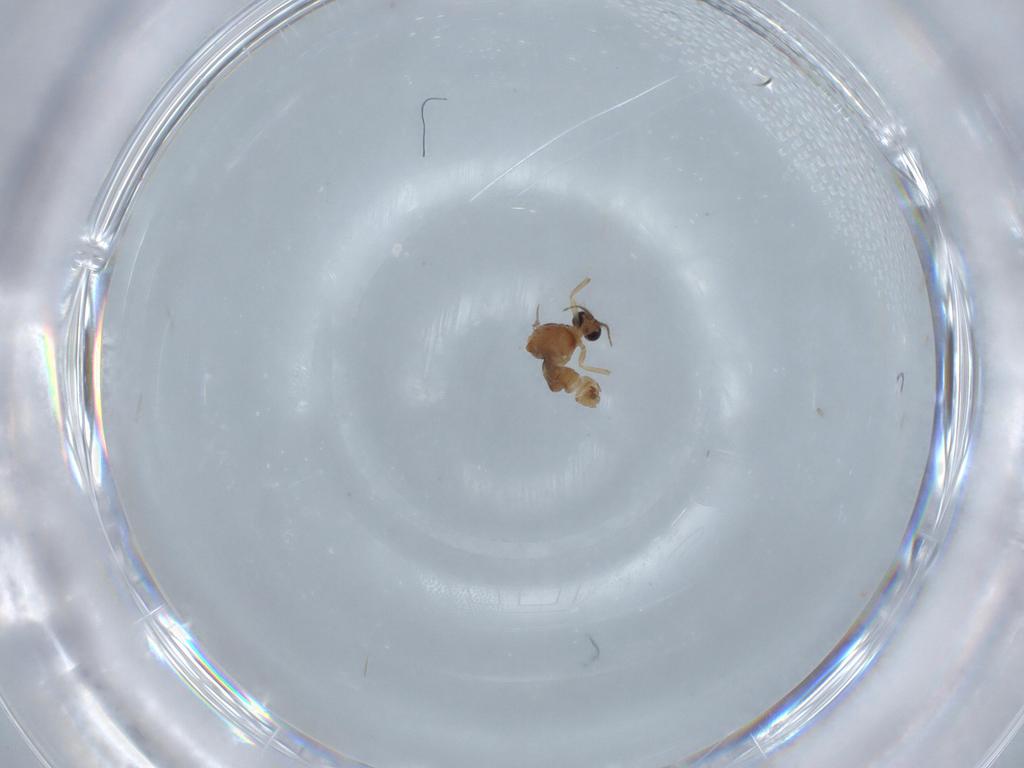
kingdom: Animalia
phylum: Arthropoda
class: Insecta
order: Diptera
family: Ceratopogonidae
